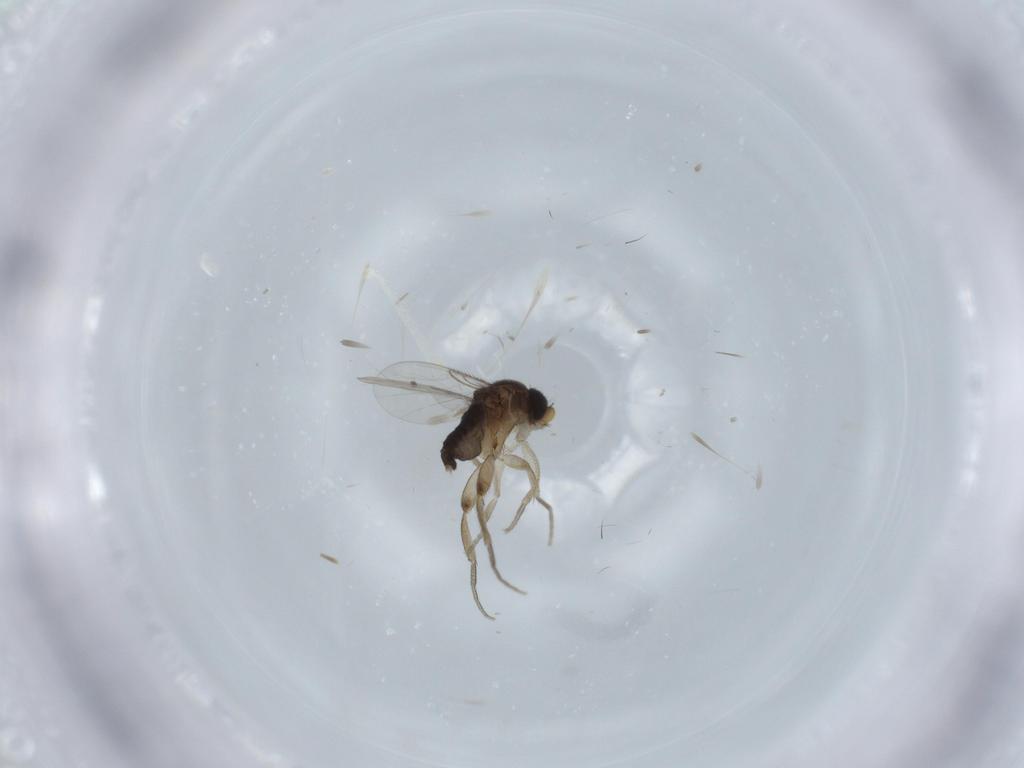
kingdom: Animalia
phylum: Arthropoda
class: Insecta
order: Diptera
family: Phoridae
